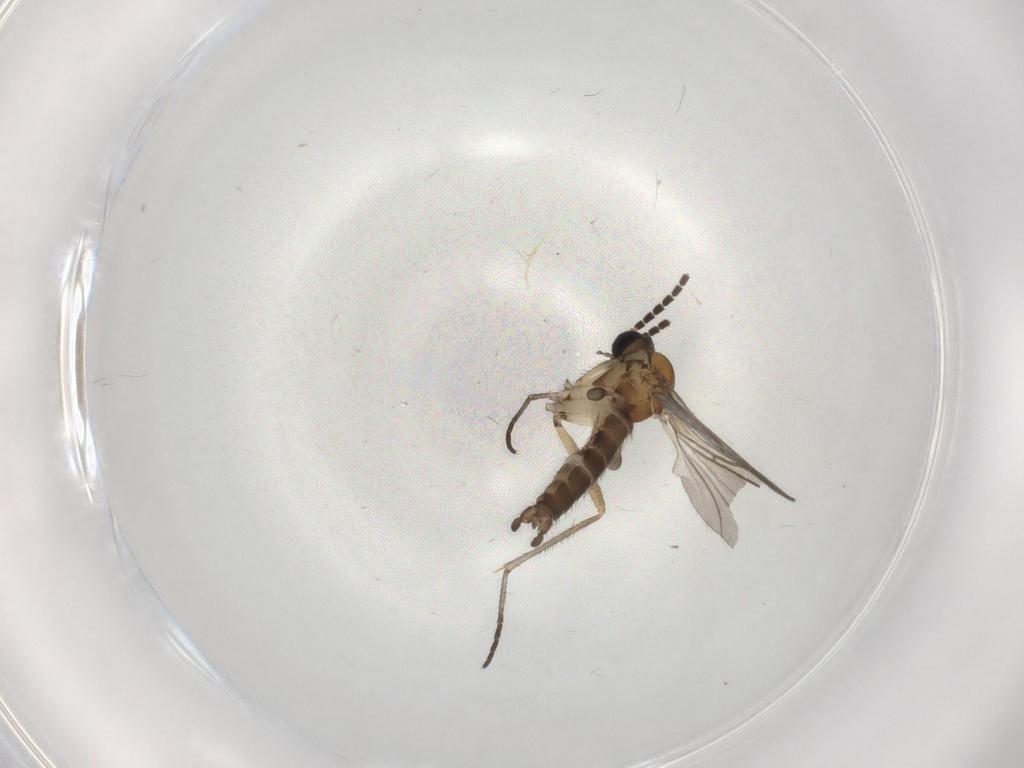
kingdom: Animalia
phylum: Arthropoda
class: Insecta
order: Diptera
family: Sciaridae
